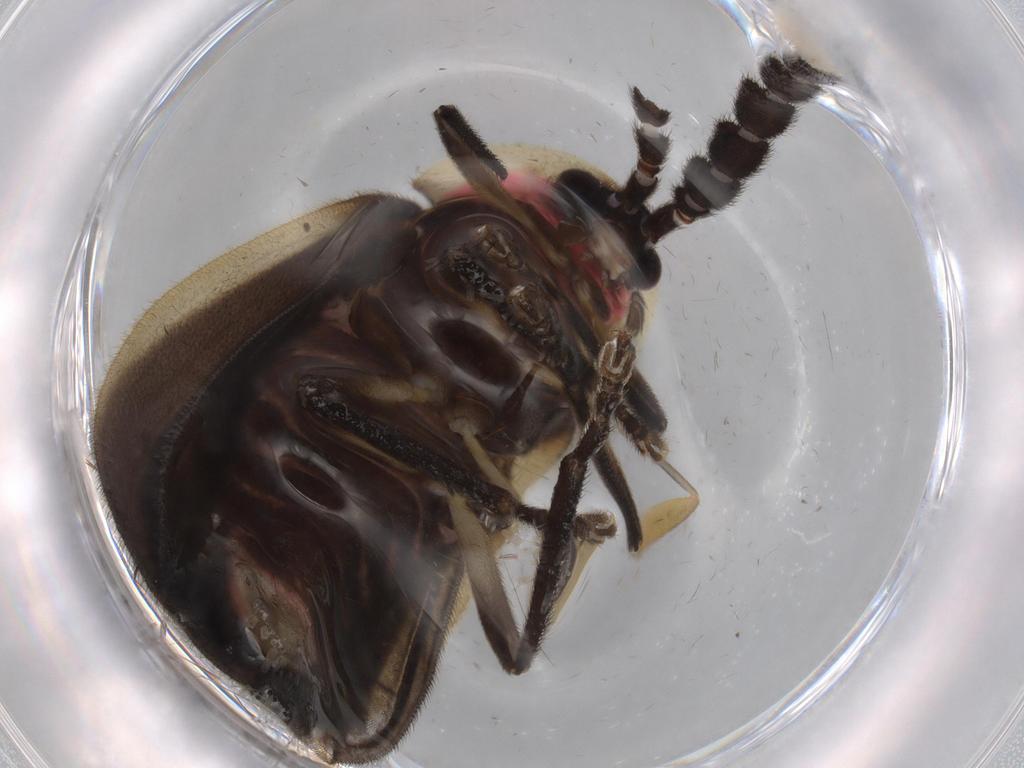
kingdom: Animalia
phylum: Arthropoda
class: Insecta
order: Coleoptera
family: Lampyridae
